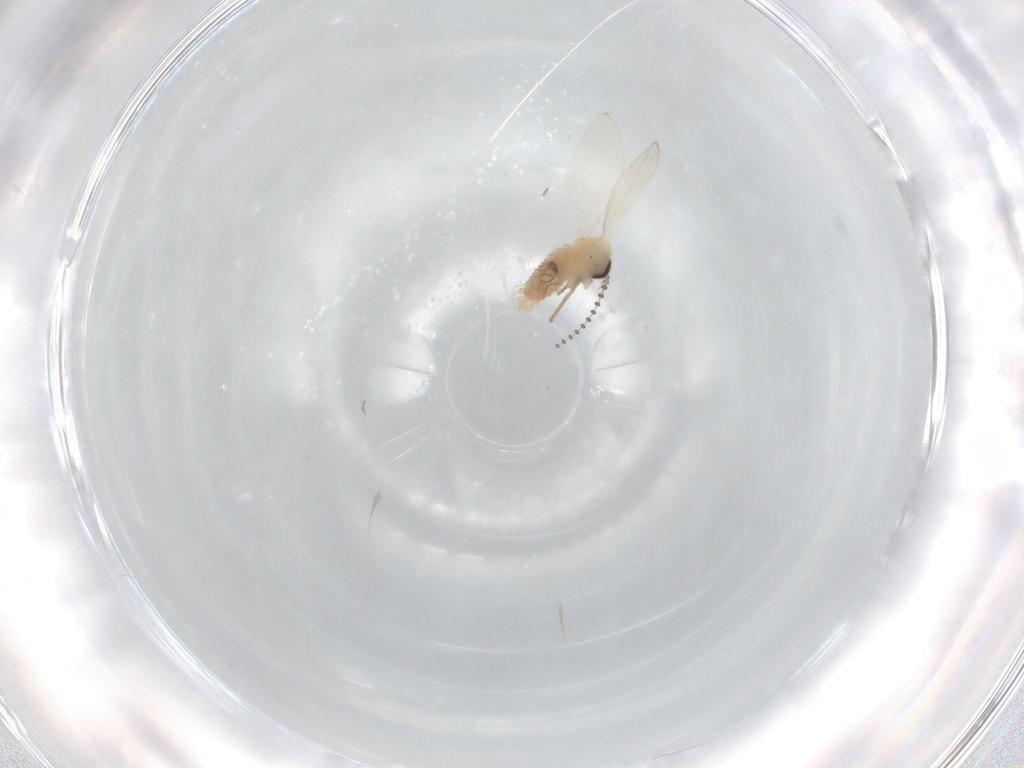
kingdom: Animalia
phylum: Arthropoda
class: Insecta
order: Diptera
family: Psychodidae
